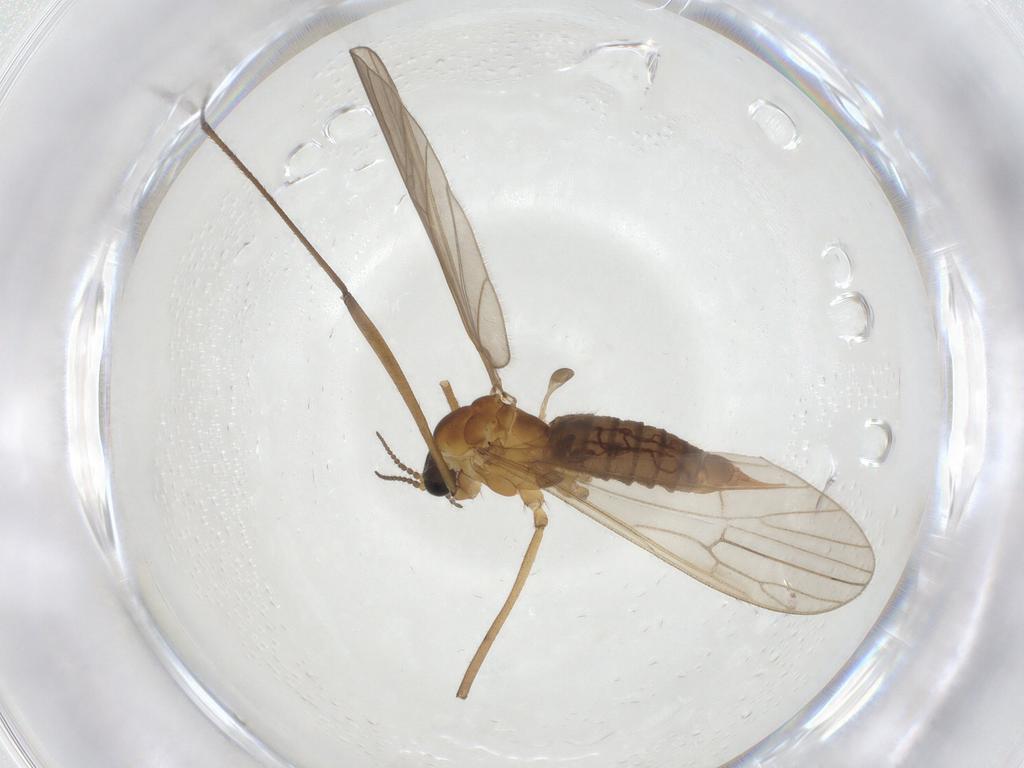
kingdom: Animalia
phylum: Arthropoda
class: Insecta
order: Diptera
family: Limoniidae
